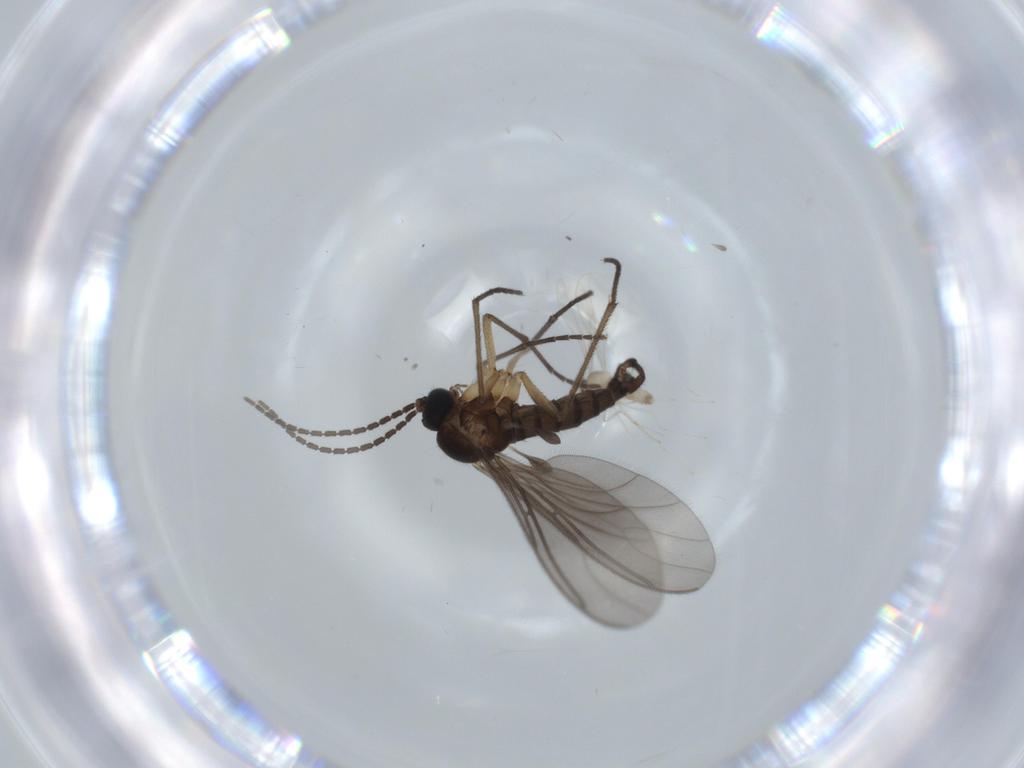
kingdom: Animalia
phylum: Arthropoda
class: Insecta
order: Diptera
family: Cecidomyiidae
